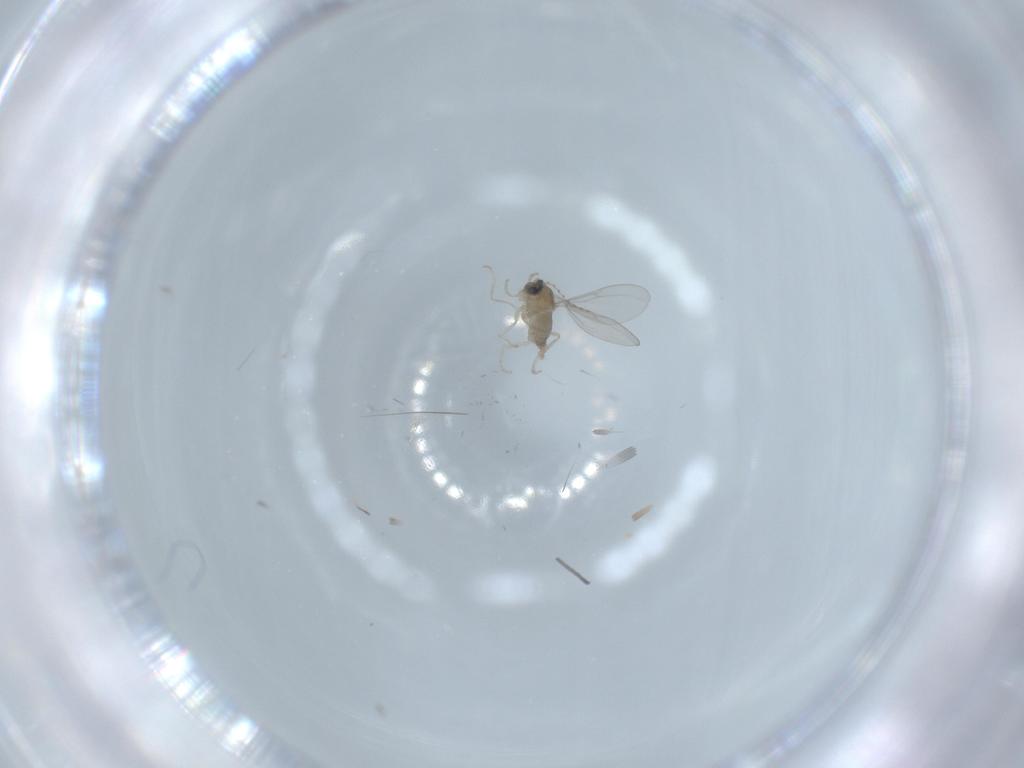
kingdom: Animalia
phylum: Arthropoda
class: Insecta
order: Diptera
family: Cecidomyiidae
